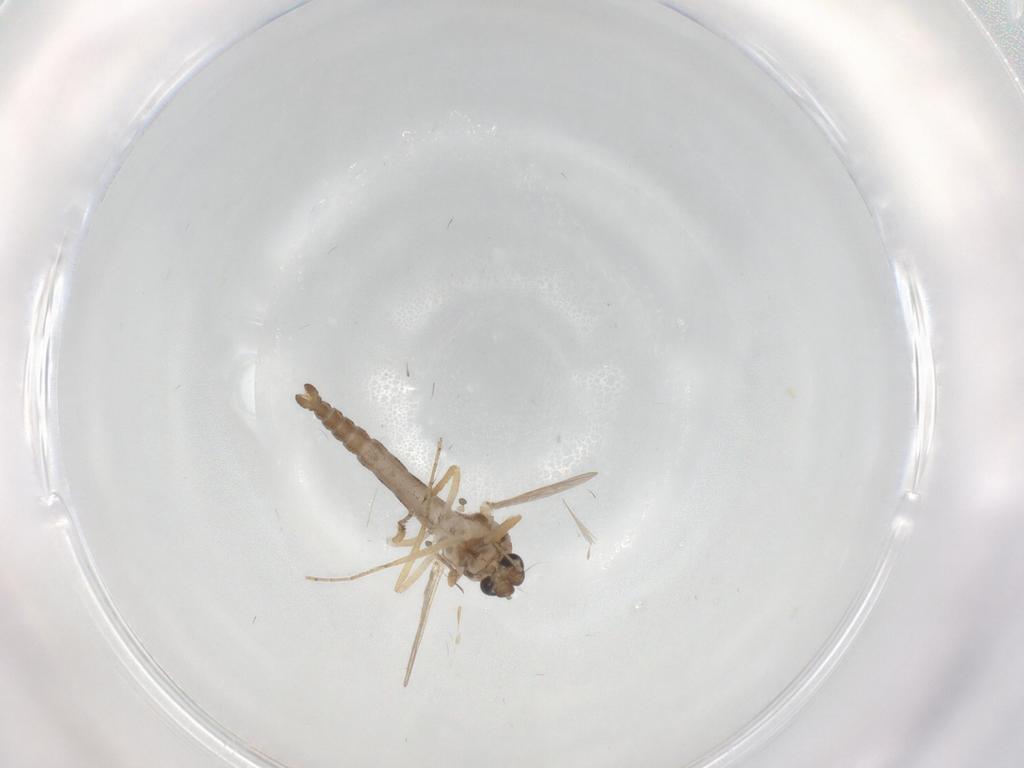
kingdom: Animalia
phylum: Arthropoda
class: Insecta
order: Diptera
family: Ceratopogonidae
